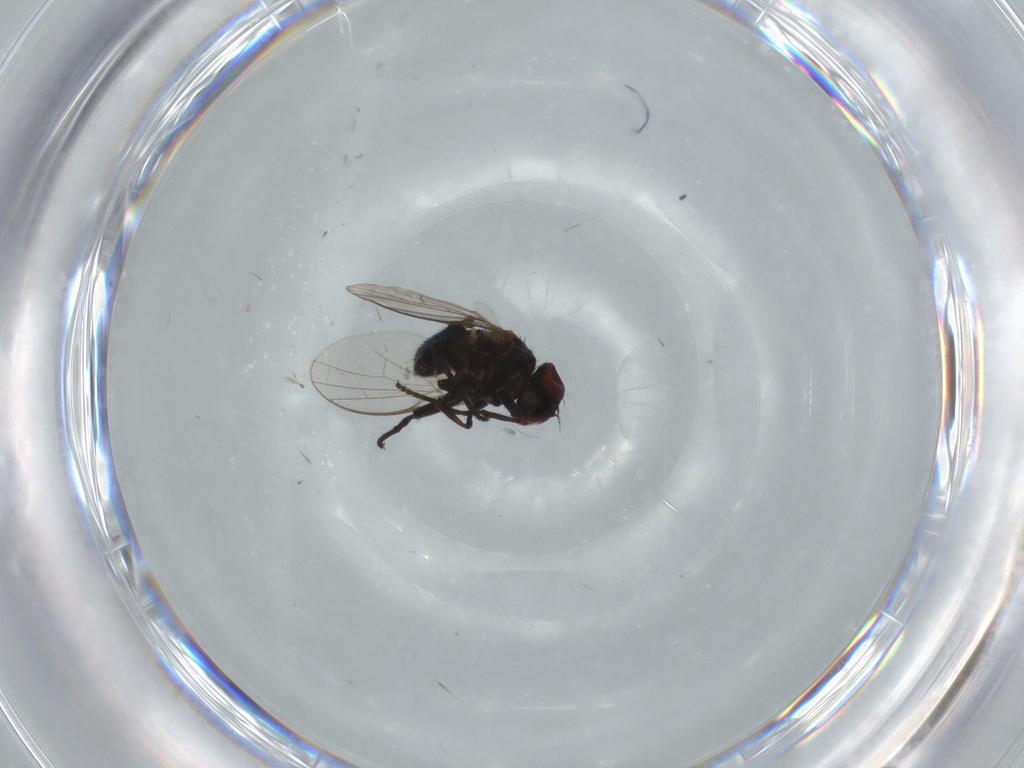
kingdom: Animalia
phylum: Arthropoda
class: Insecta
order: Diptera
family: Agromyzidae
